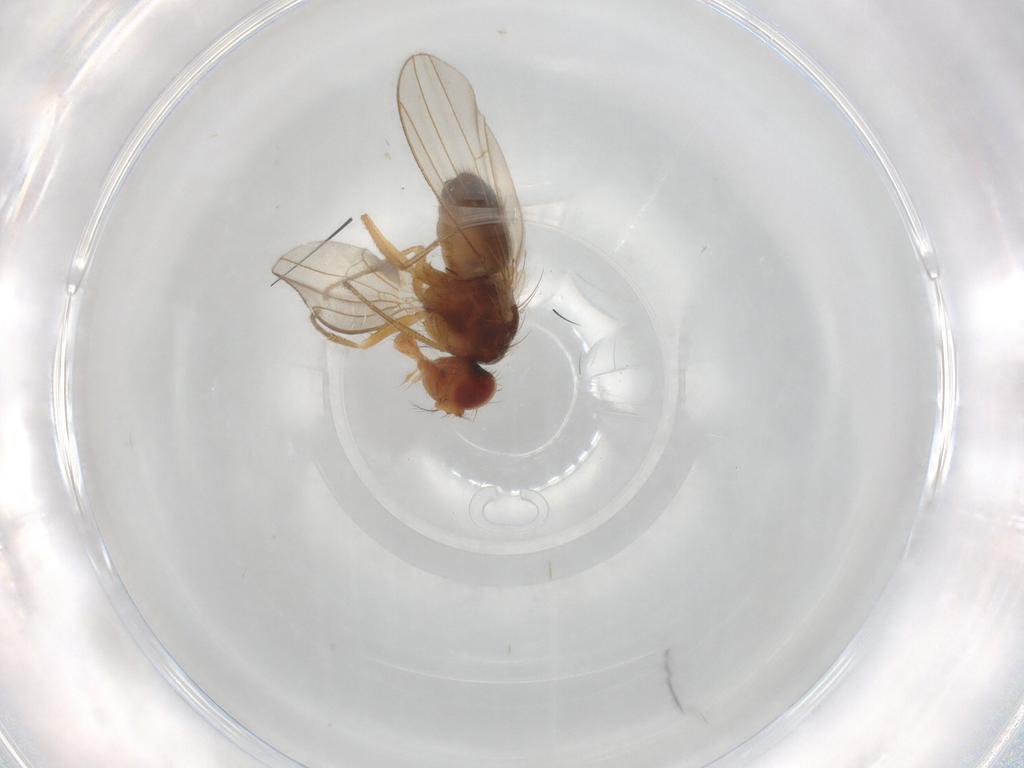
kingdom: Animalia
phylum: Arthropoda
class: Insecta
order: Diptera
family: Drosophilidae
